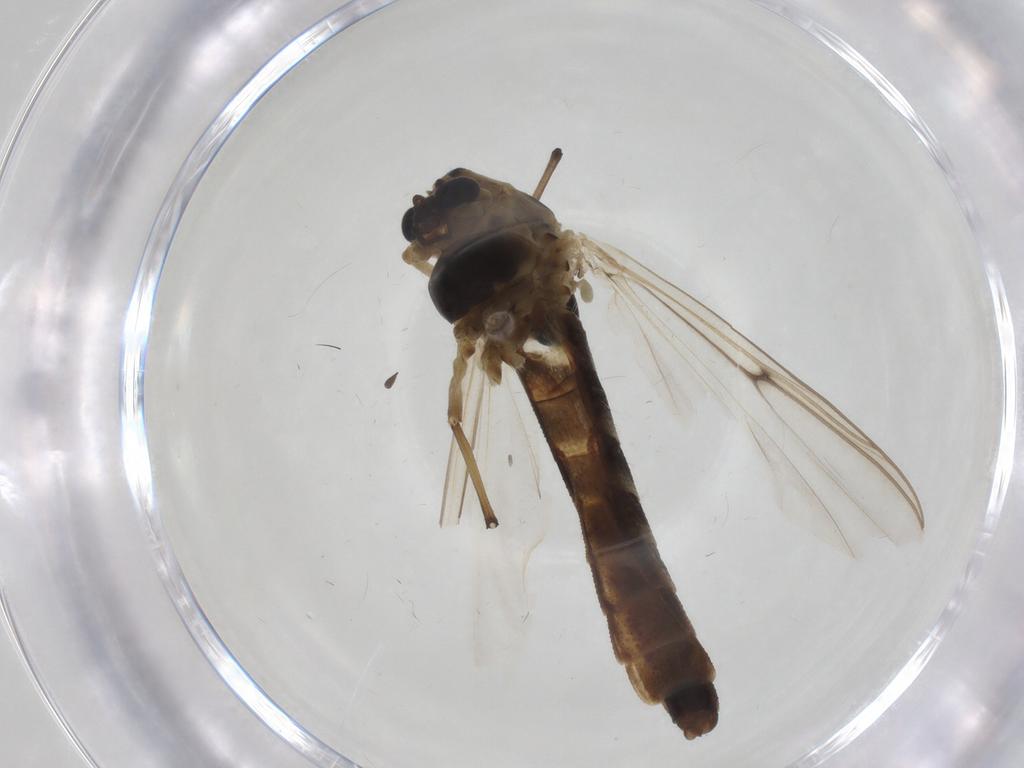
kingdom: Animalia
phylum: Arthropoda
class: Insecta
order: Diptera
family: Chironomidae
